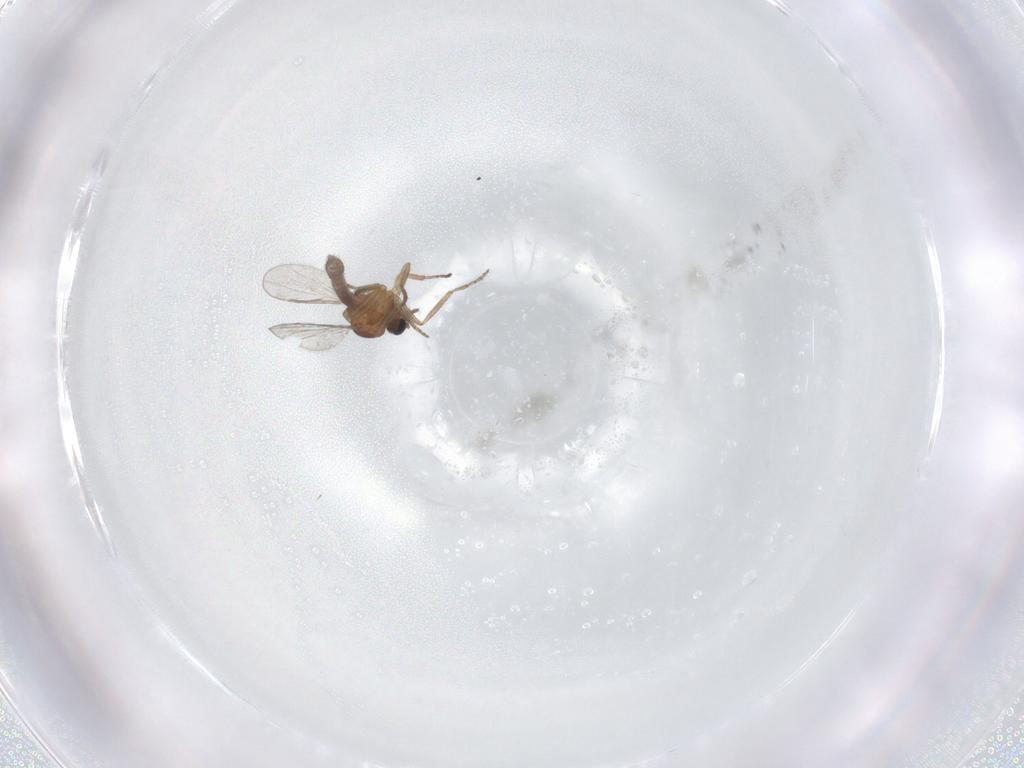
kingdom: Animalia
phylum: Arthropoda
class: Insecta
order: Diptera
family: Chironomidae
